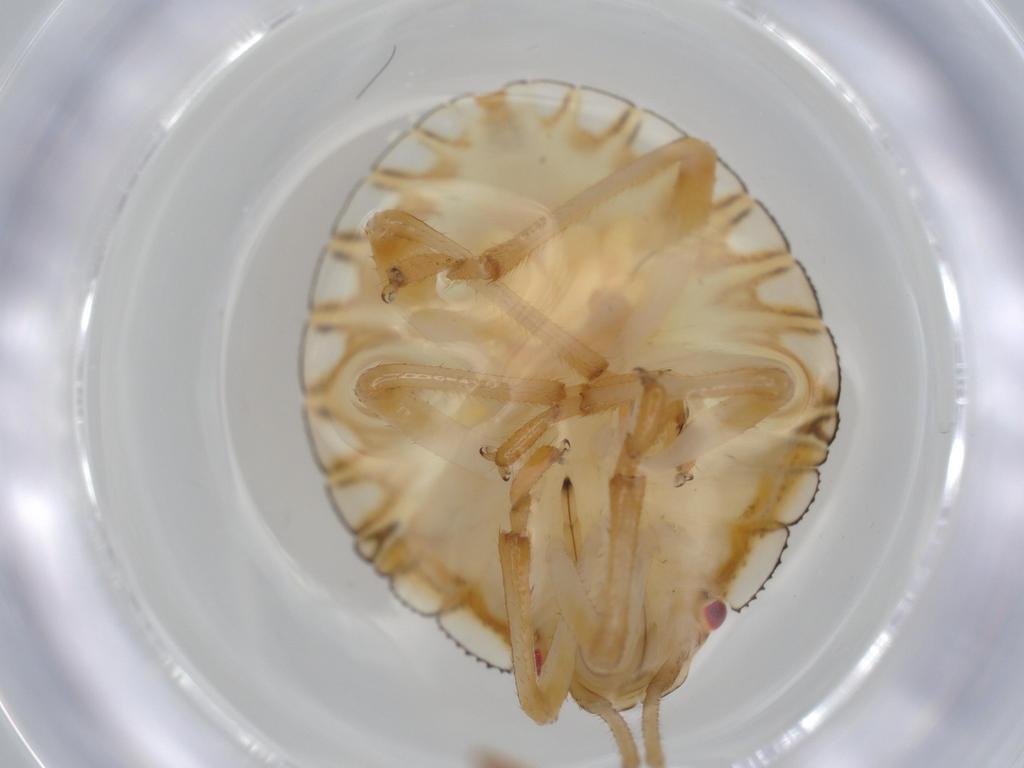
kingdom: Animalia
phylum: Arthropoda
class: Insecta
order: Hemiptera
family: Pentatomidae
